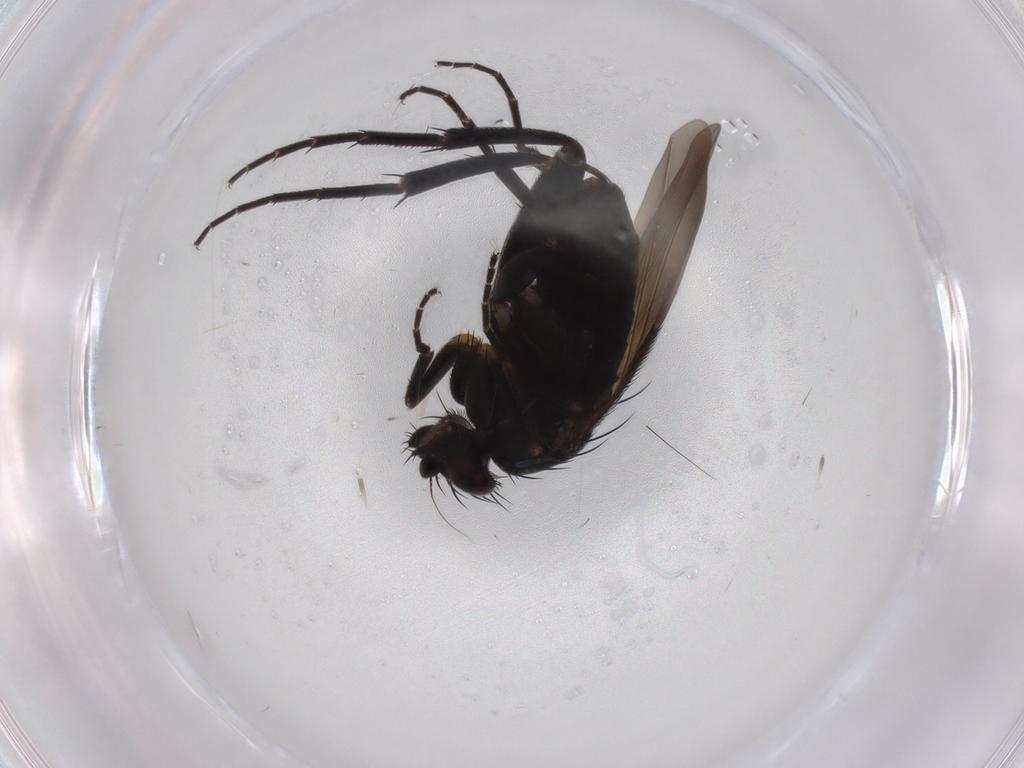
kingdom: Animalia
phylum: Arthropoda
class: Insecta
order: Diptera
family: Phoridae
